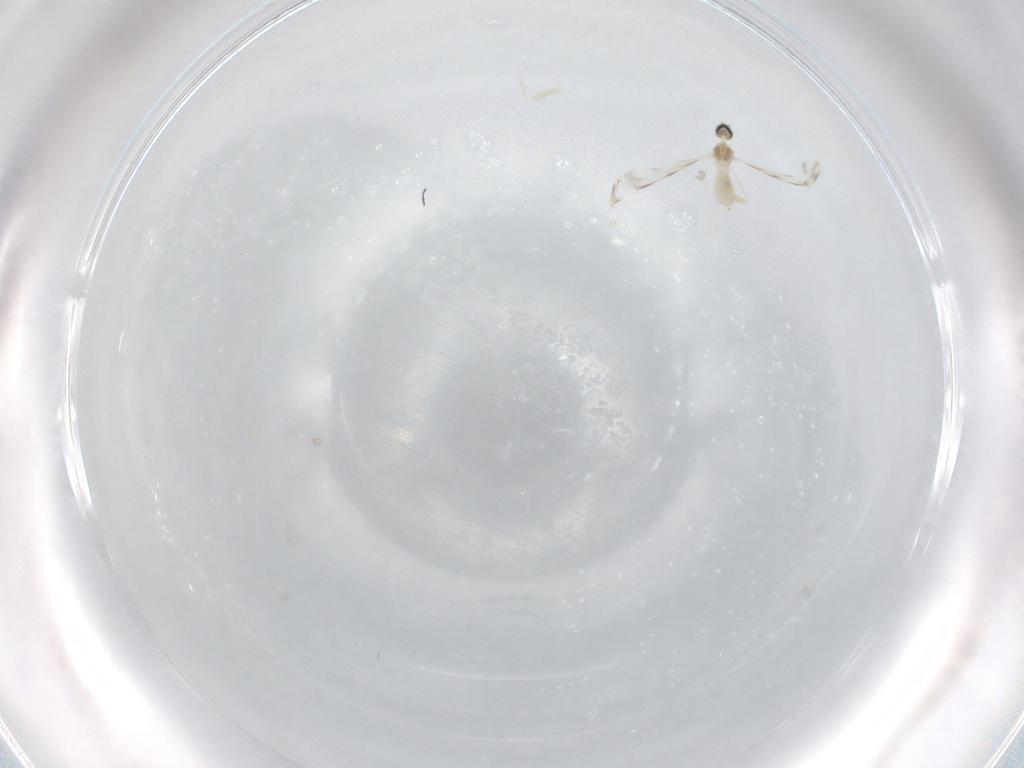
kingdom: Animalia
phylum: Arthropoda
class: Insecta
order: Diptera
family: Cecidomyiidae
